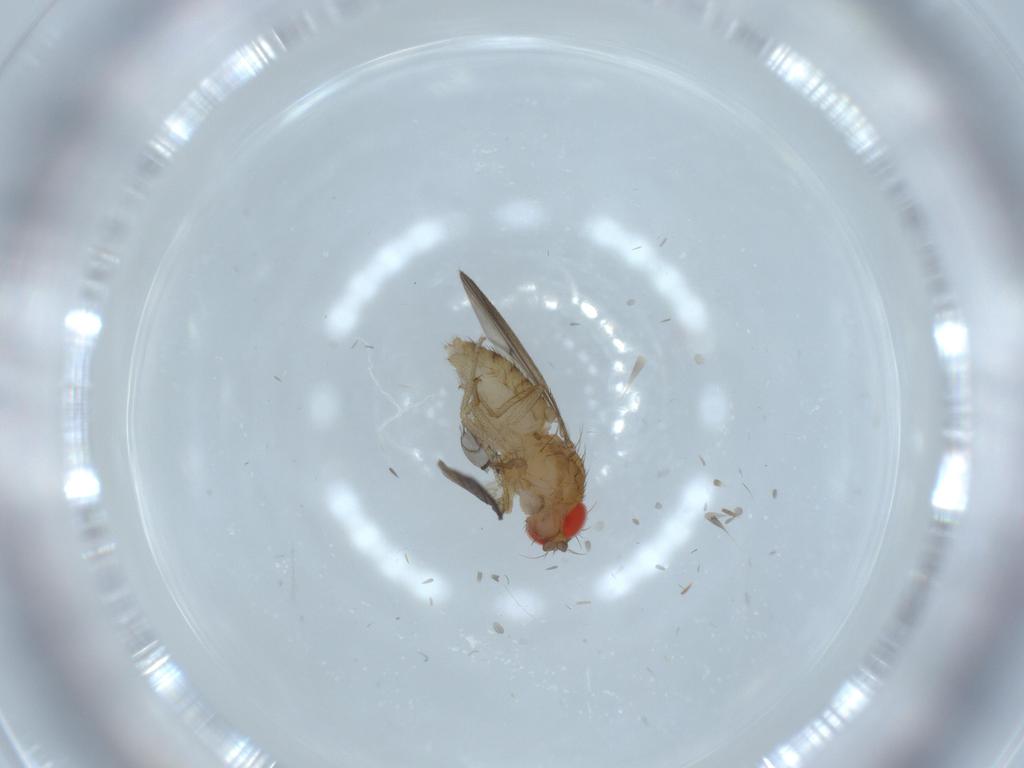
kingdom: Animalia
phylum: Arthropoda
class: Insecta
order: Diptera
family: Drosophilidae
